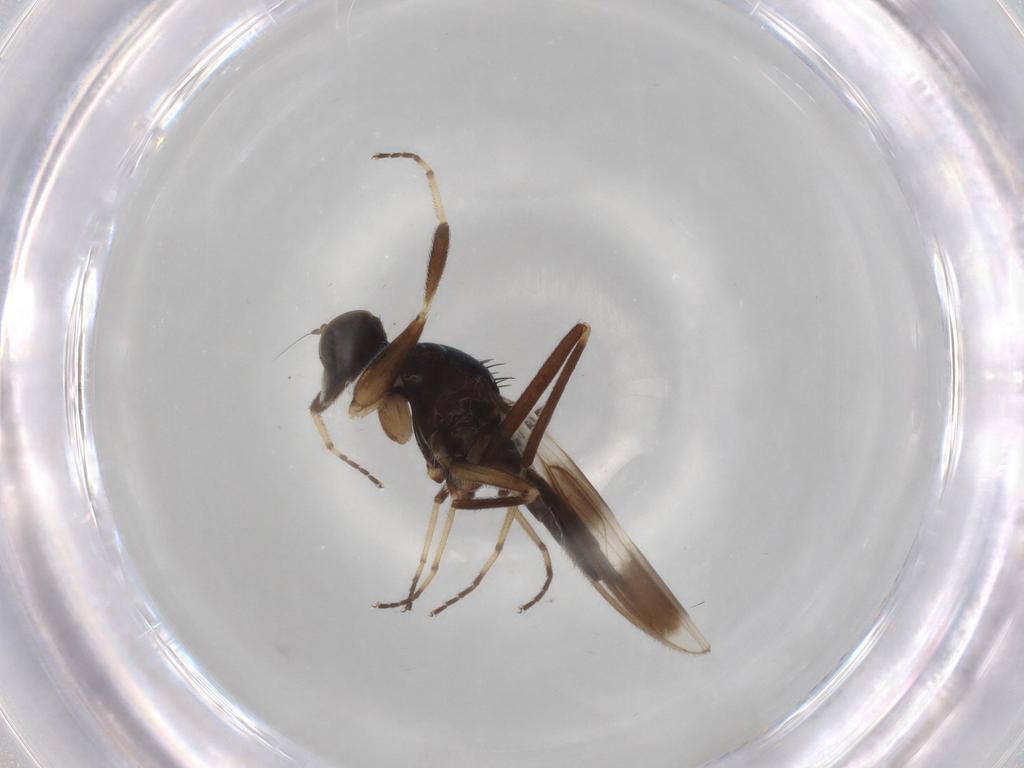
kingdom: Animalia
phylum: Arthropoda
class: Insecta
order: Diptera
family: Hybotidae
